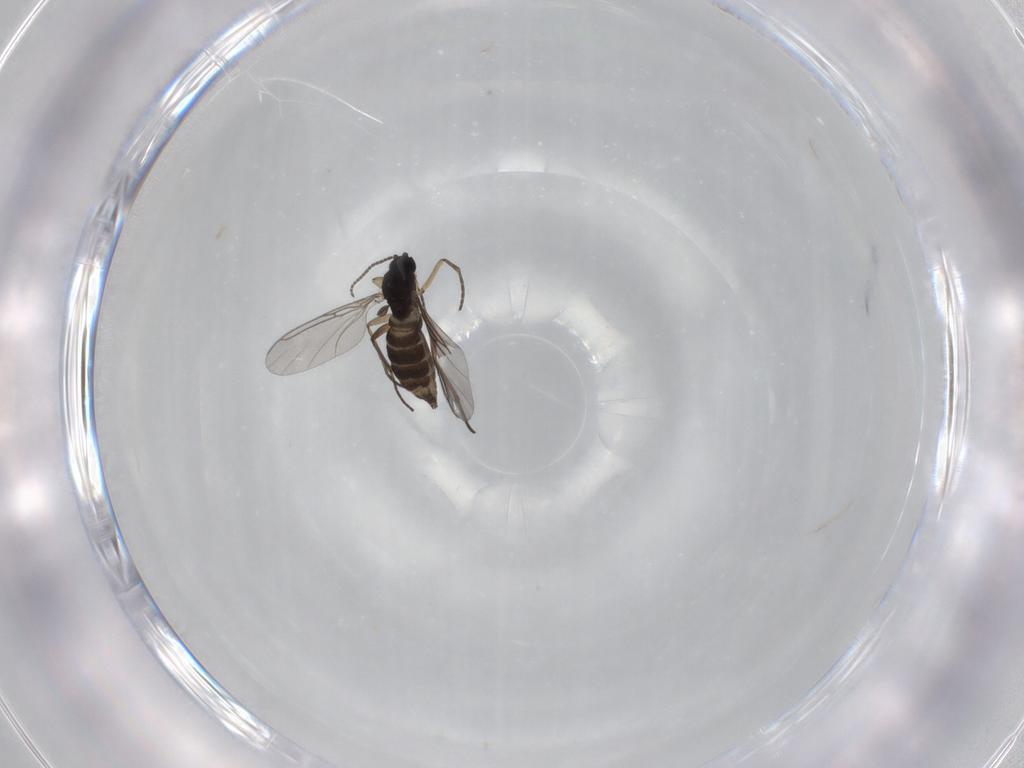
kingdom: Animalia
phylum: Arthropoda
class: Insecta
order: Diptera
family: Sciaridae
